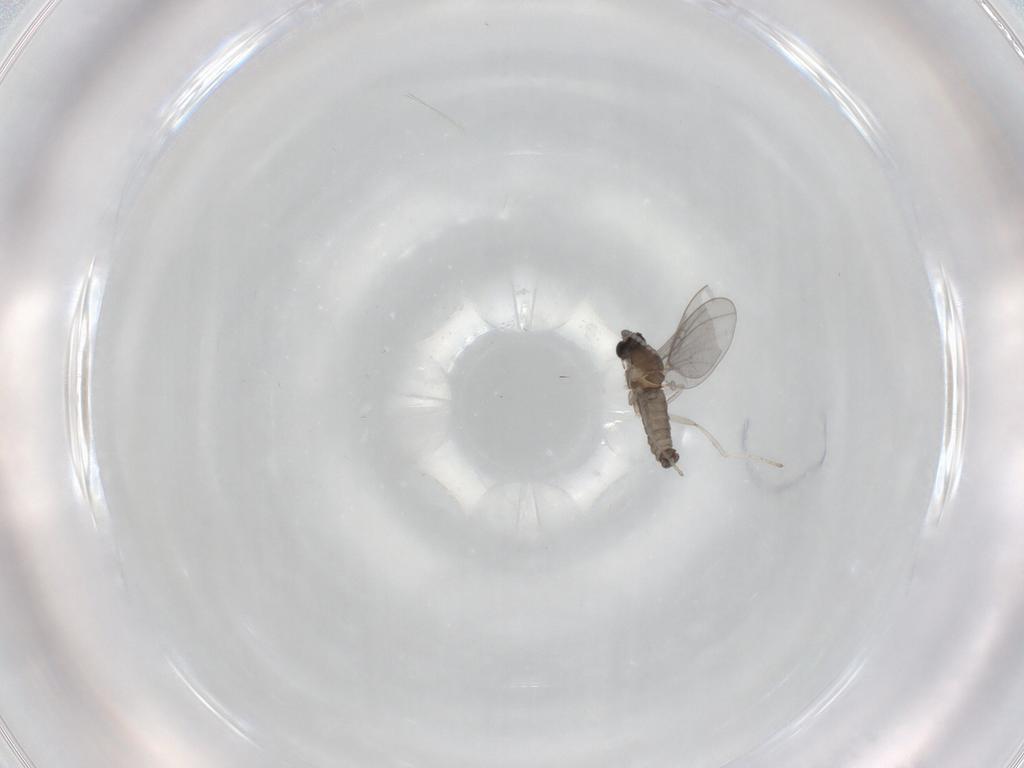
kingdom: Animalia
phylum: Arthropoda
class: Insecta
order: Diptera
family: Cecidomyiidae
